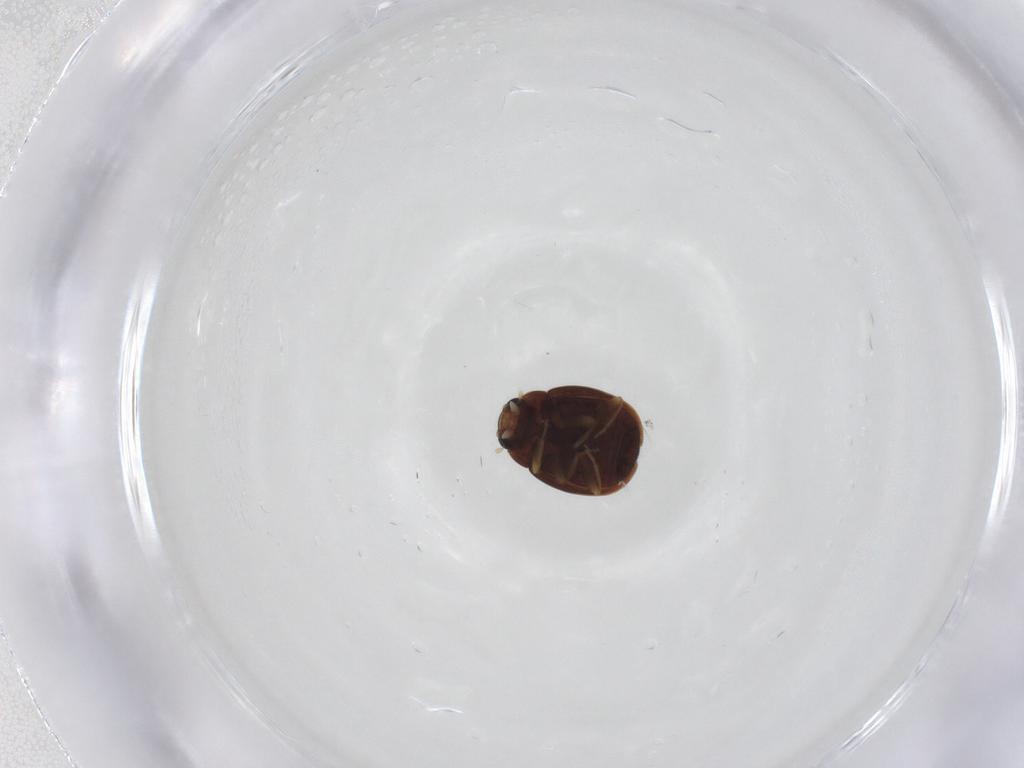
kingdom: Animalia
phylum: Arthropoda
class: Insecta
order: Coleoptera
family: Coccinellidae
